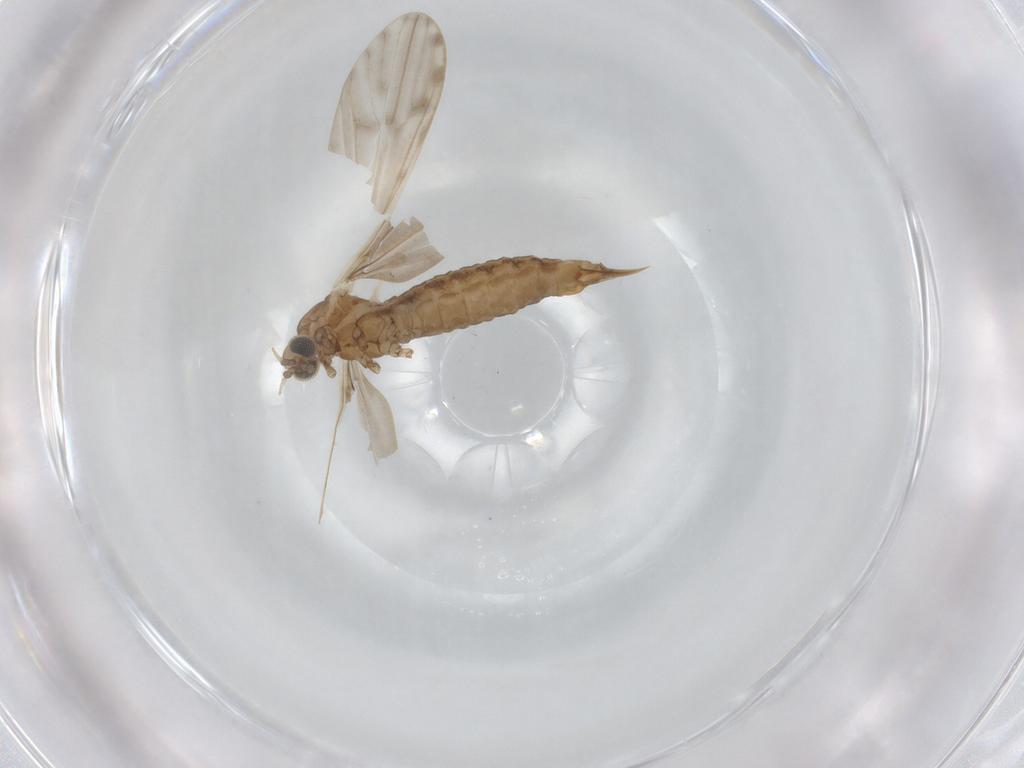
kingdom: Animalia
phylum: Arthropoda
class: Insecta
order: Diptera
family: Limoniidae
